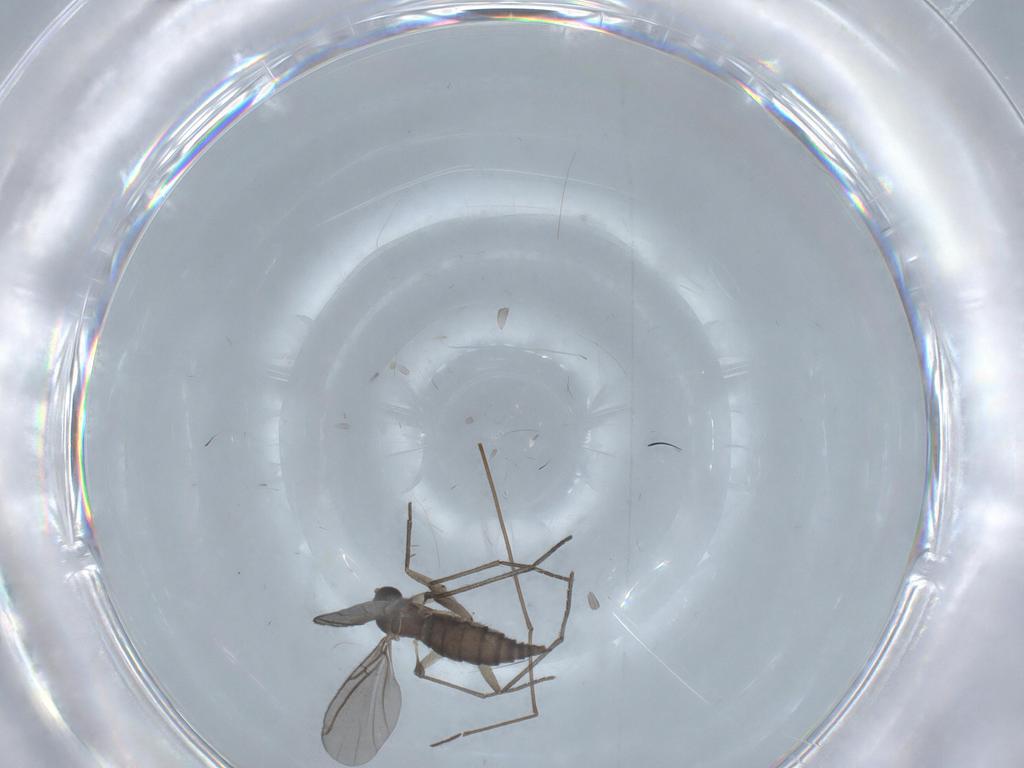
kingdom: Animalia
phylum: Arthropoda
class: Insecta
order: Diptera
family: Sciaridae
